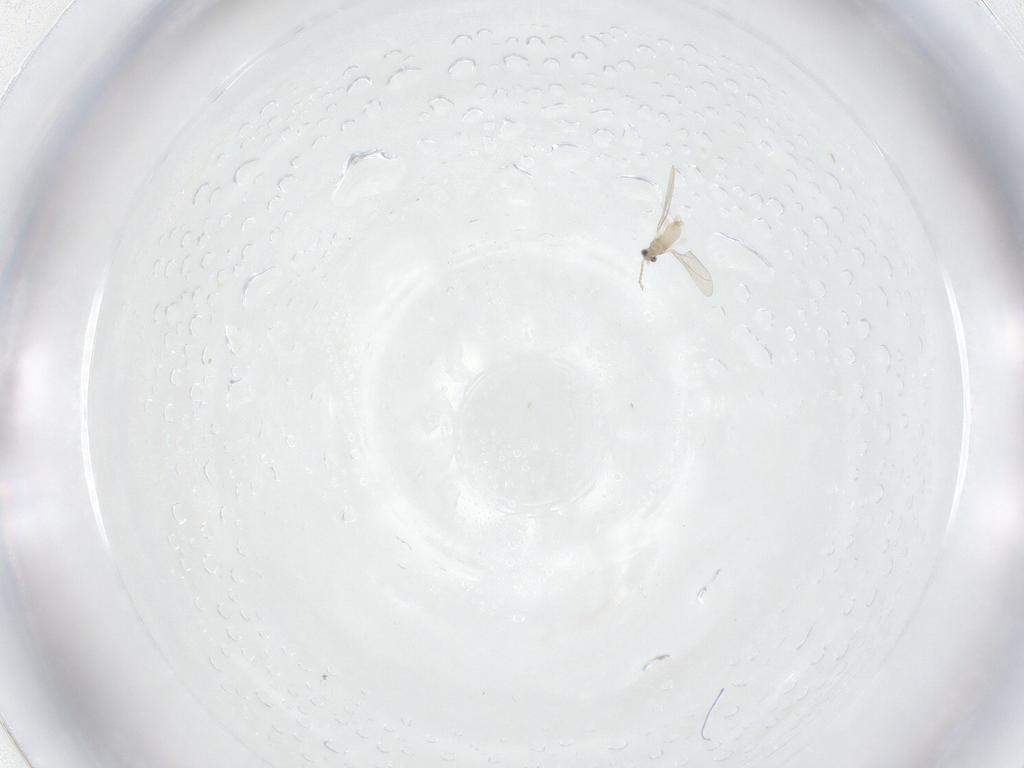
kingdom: Animalia
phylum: Arthropoda
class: Insecta
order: Diptera
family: Cecidomyiidae
